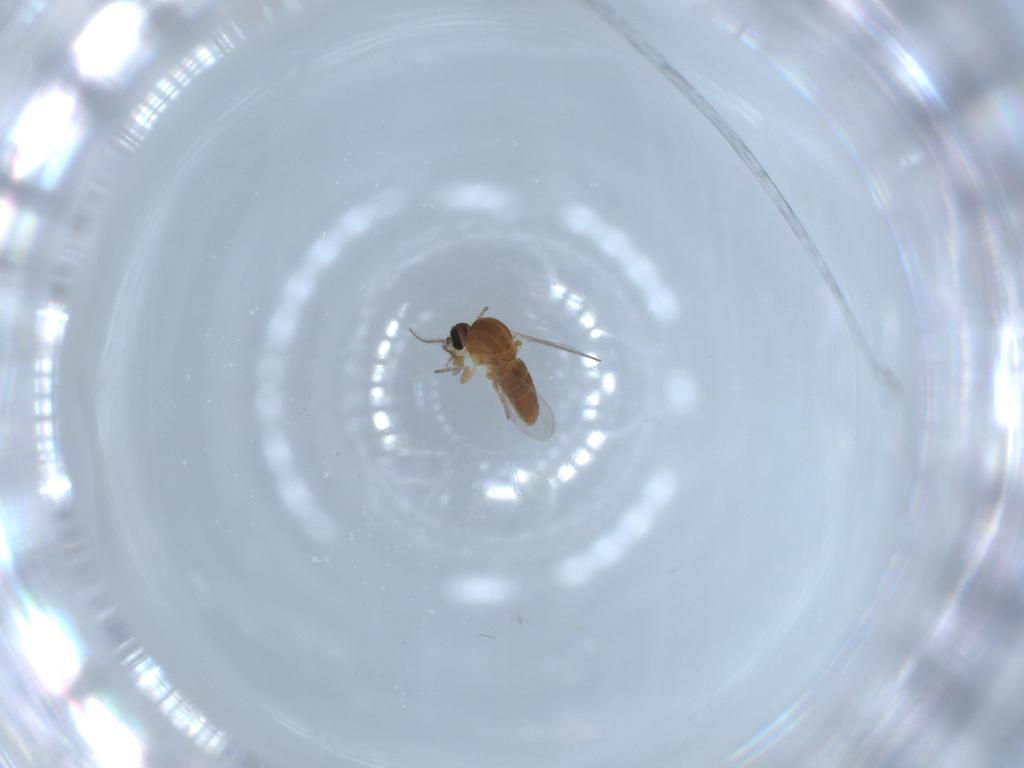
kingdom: Animalia
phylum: Arthropoda
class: Insecta
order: Diptera
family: Ceratopogonidae
